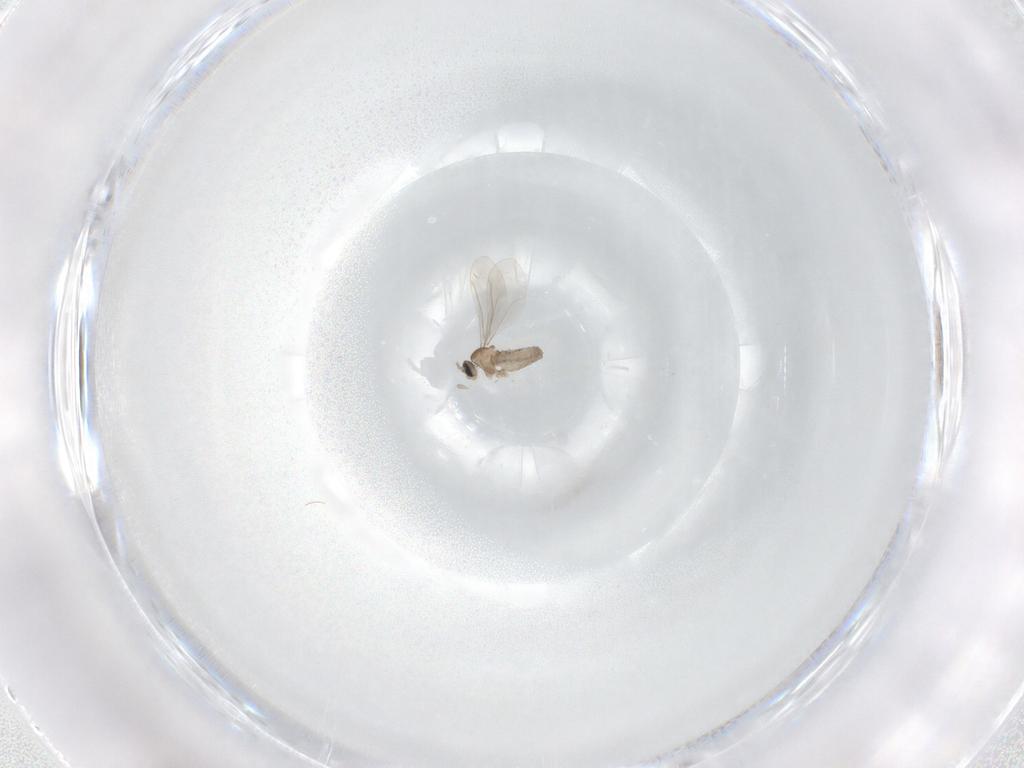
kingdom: Animalia
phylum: Arthropoda
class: Insecta
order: Diptera
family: Cecidomyiidae
